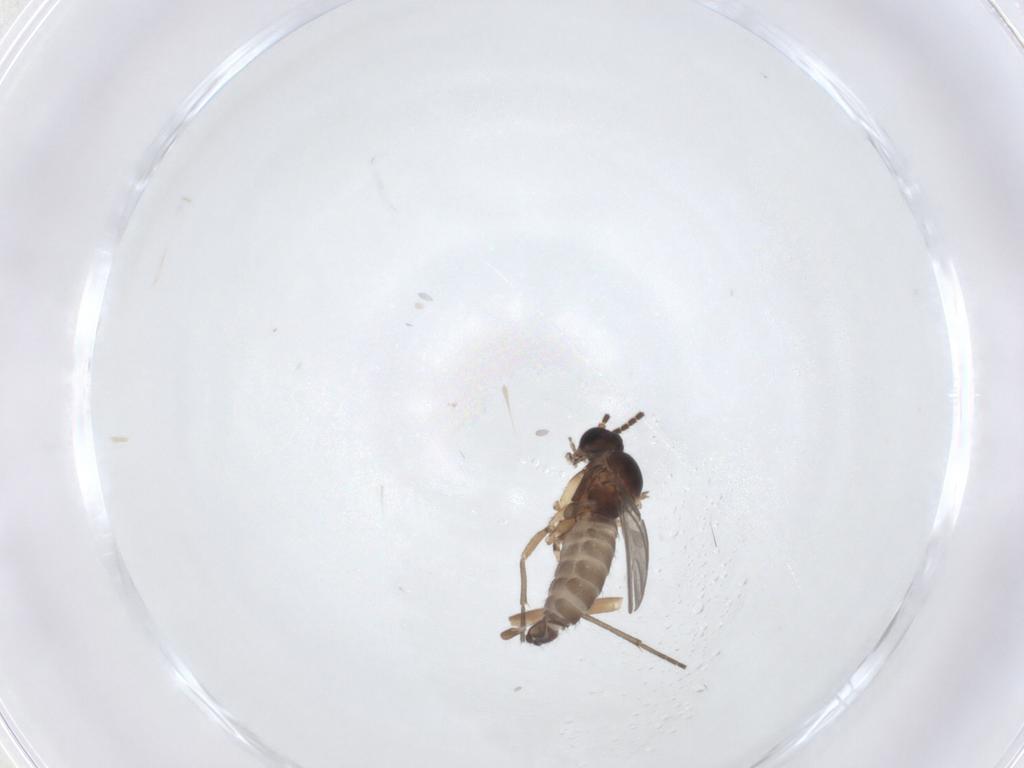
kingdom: Animalia
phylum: Arthropoda
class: Insecta
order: Diptera
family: Sciaridae
